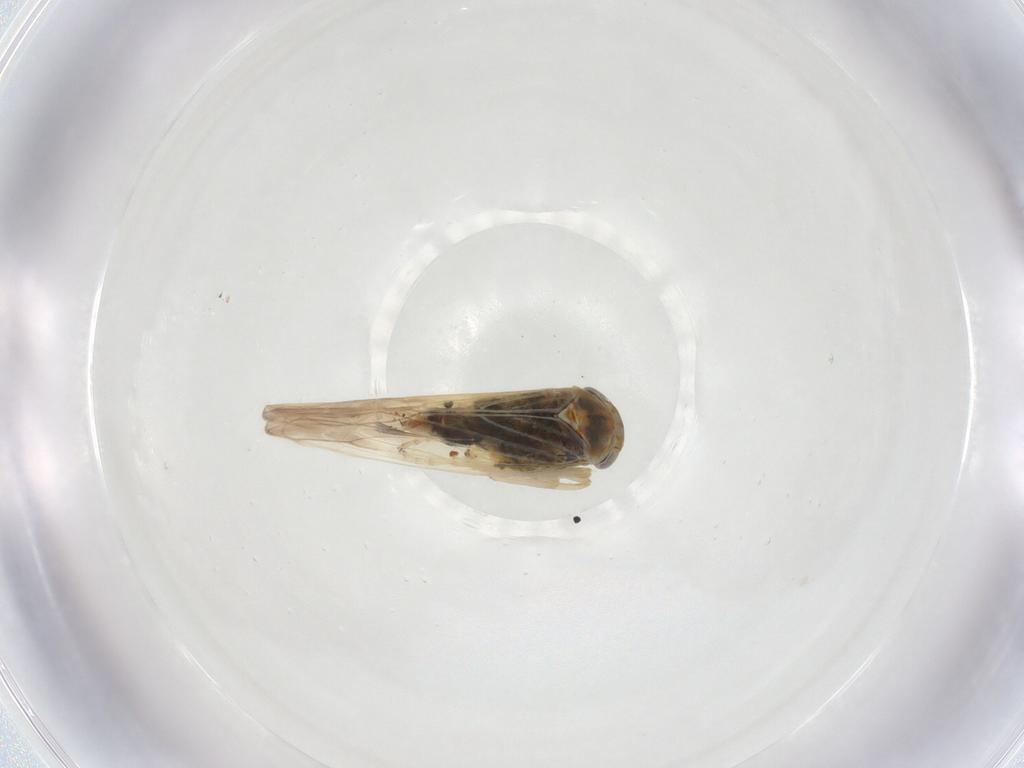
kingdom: Animalia
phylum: Arthropoda
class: Insecta
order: Hemiptera
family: Cicadellidae
